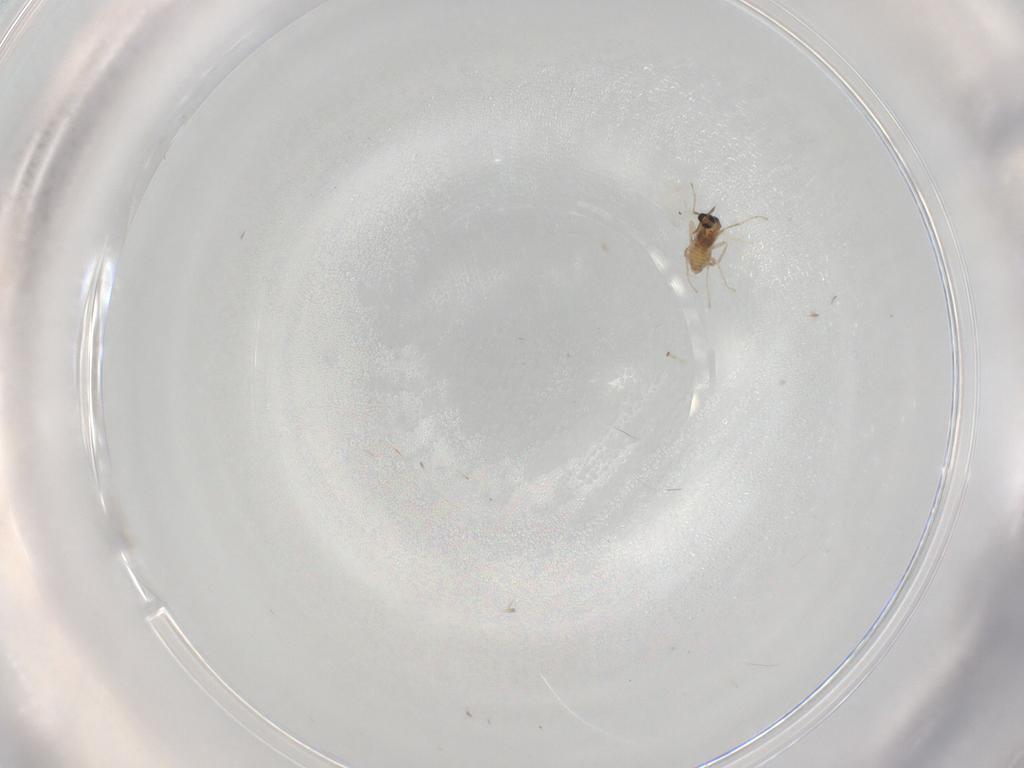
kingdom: Animalia
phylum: Arthropoda
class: Insecta
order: Diptera
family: Cecidomyiidae
